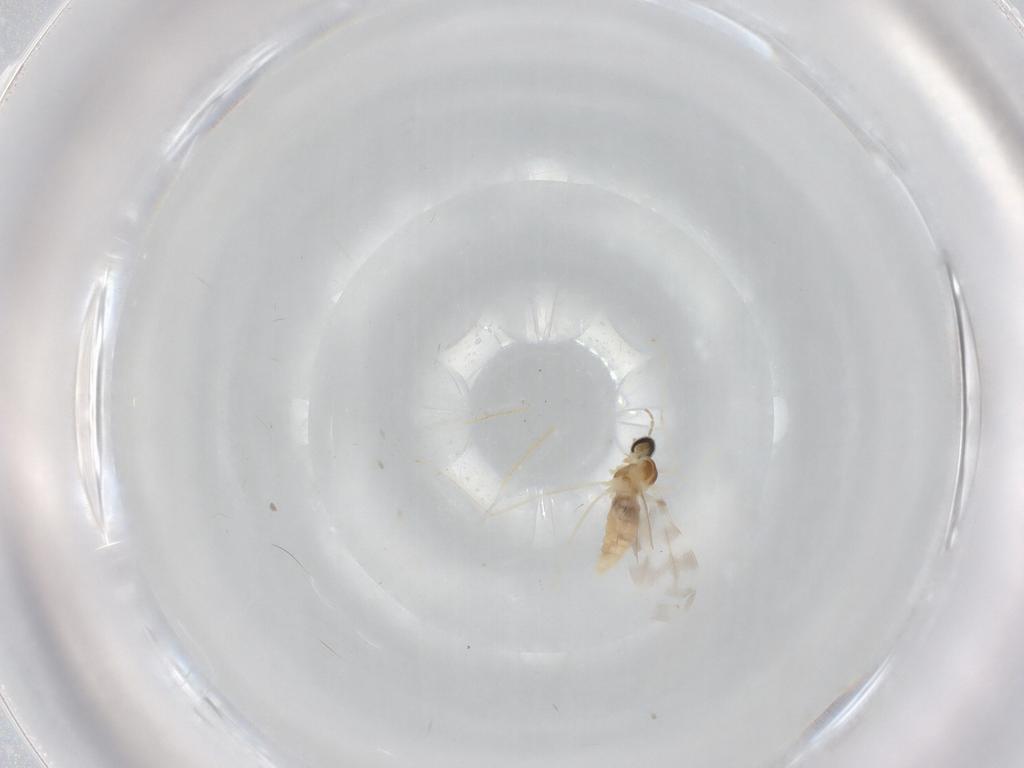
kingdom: Animalia
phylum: Arthropoda
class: Insecta
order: Diptera
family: Cecidomyiidae
